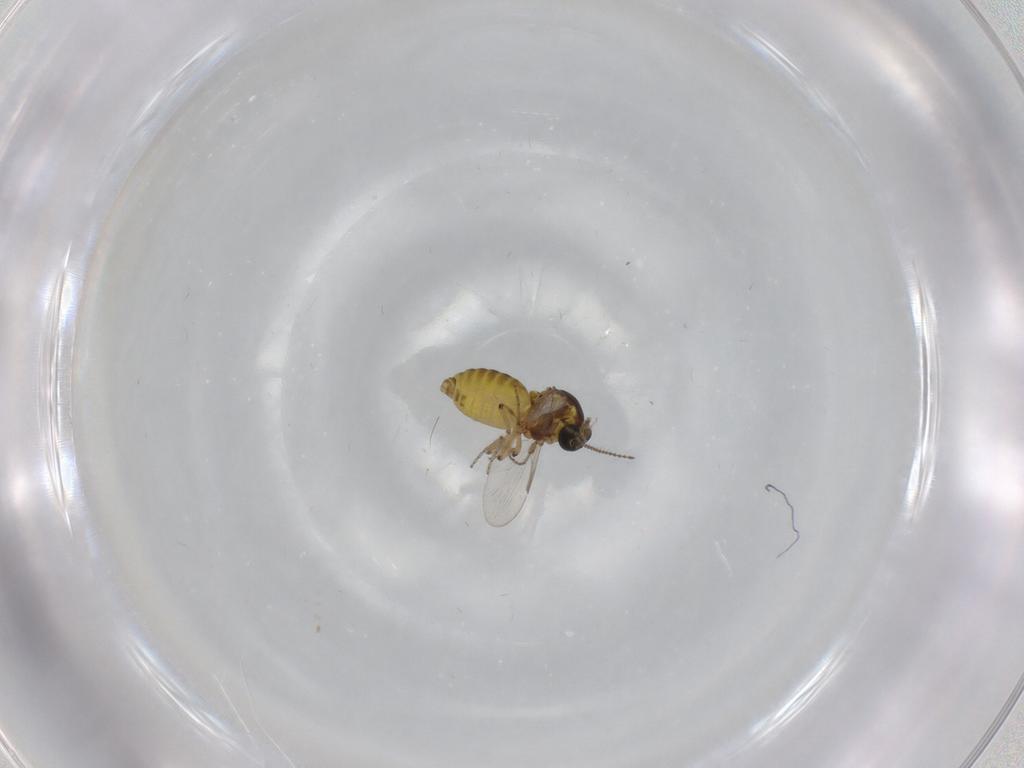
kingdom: Animalia
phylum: Arthropoda
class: Insecta
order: Diptera
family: Ceratopogonidae
